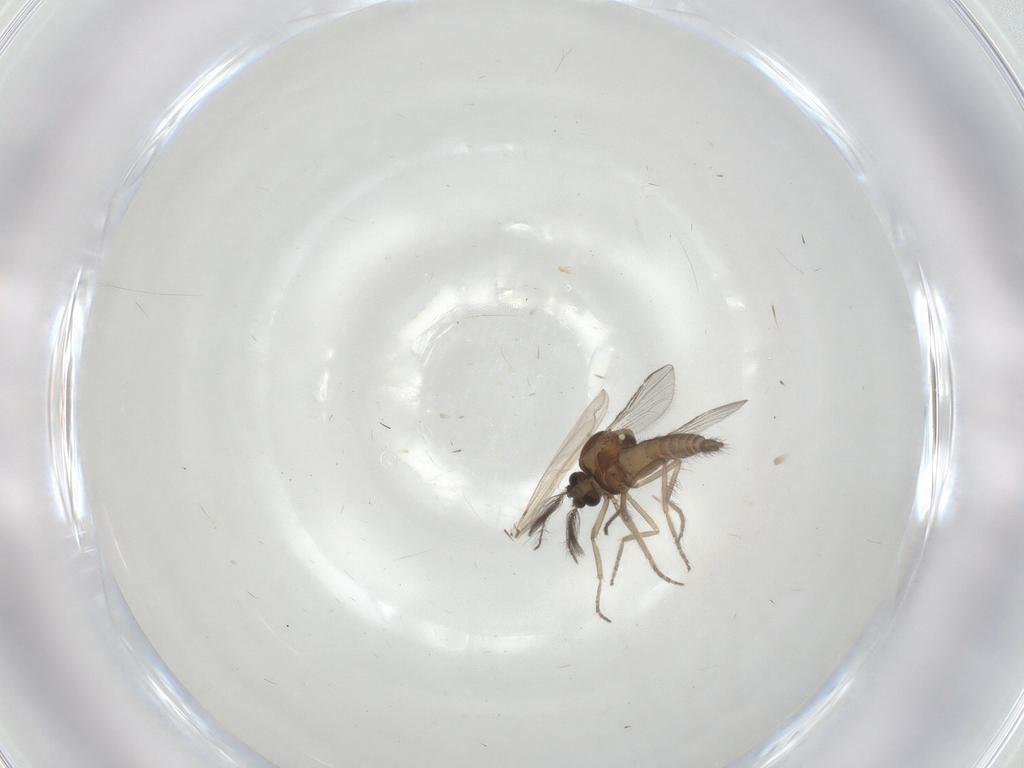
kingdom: Animalia
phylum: Arthropoda
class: Insecta
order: Diptera
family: Ceratopogonidae
